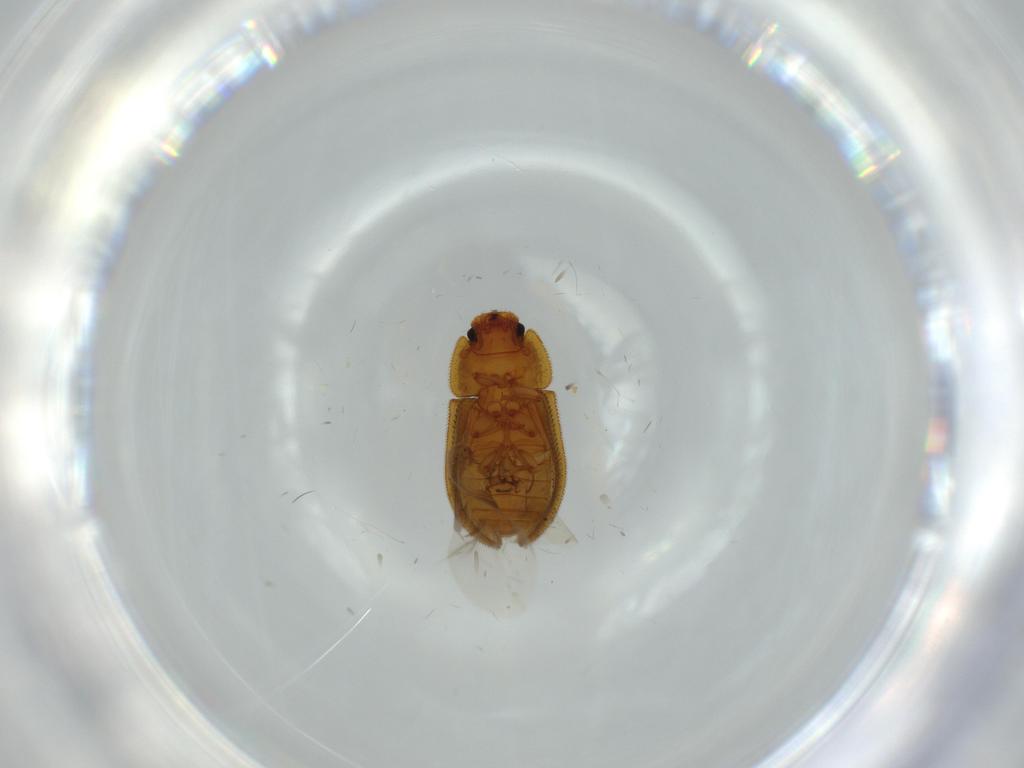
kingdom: Animalia
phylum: Arthropoda
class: Insecta
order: Coleoptera
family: Zopheridae
